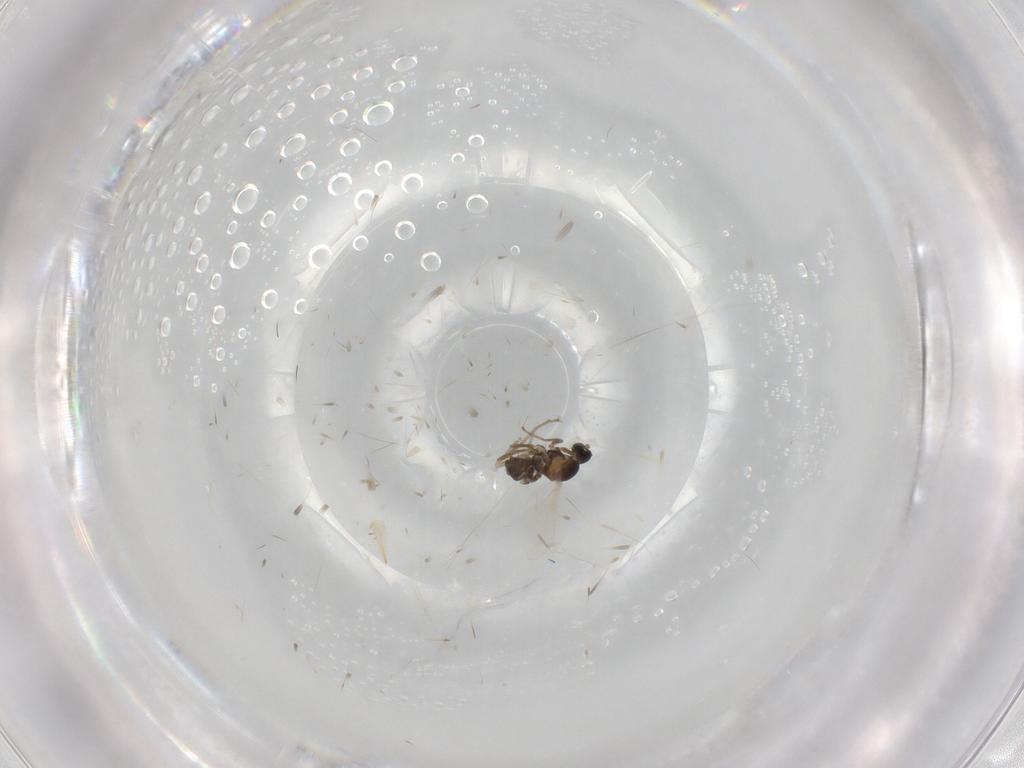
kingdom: Animalia
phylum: Arthropoda
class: Insecta
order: Diptera
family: Cecidomyiidae
